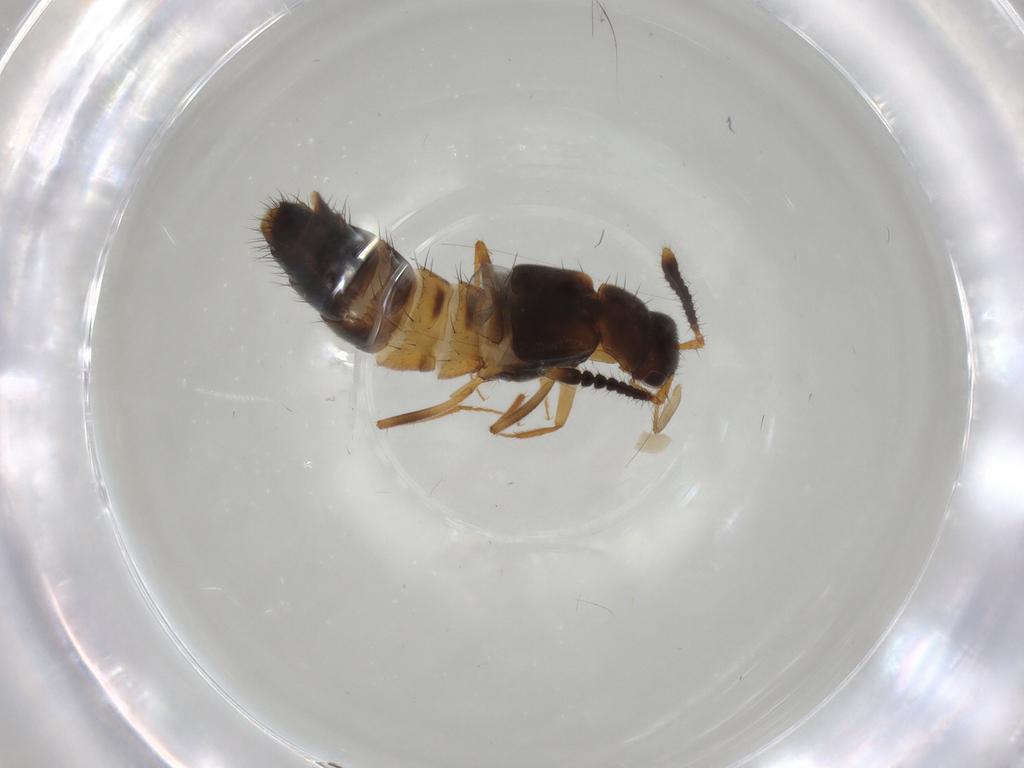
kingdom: Animalia
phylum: Arthropoda
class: Insecta
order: Coleoptera
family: Staphylinidae
